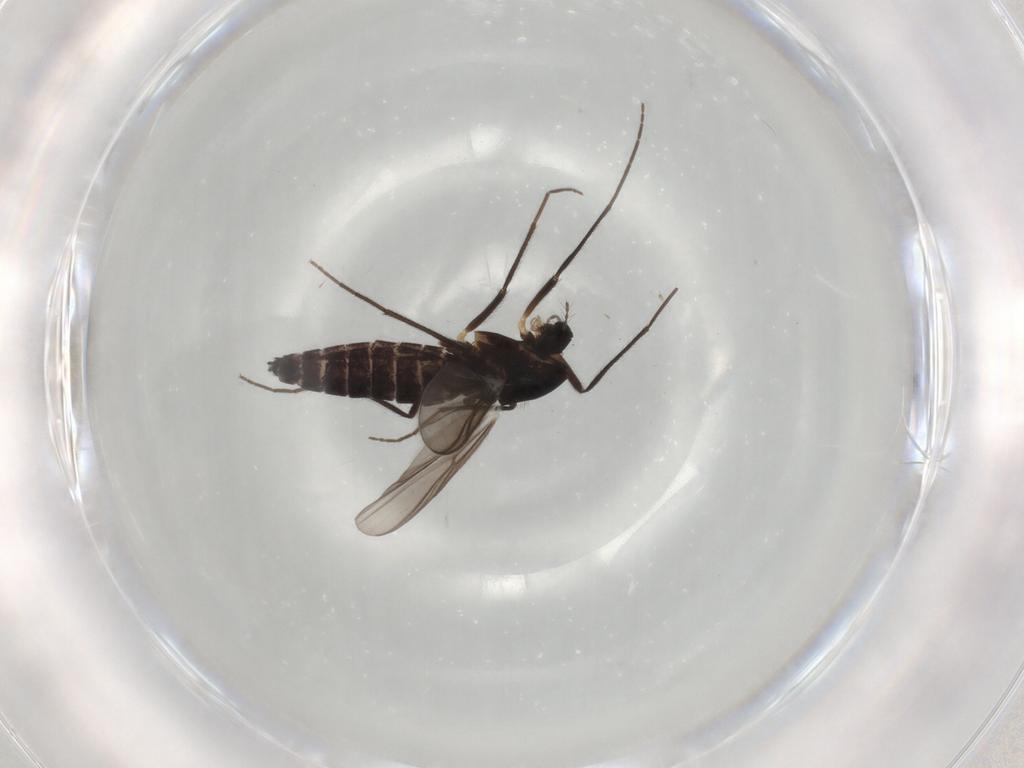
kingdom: Animalia
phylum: Arthropoda
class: Insecta
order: Diptera
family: Chironomidae
